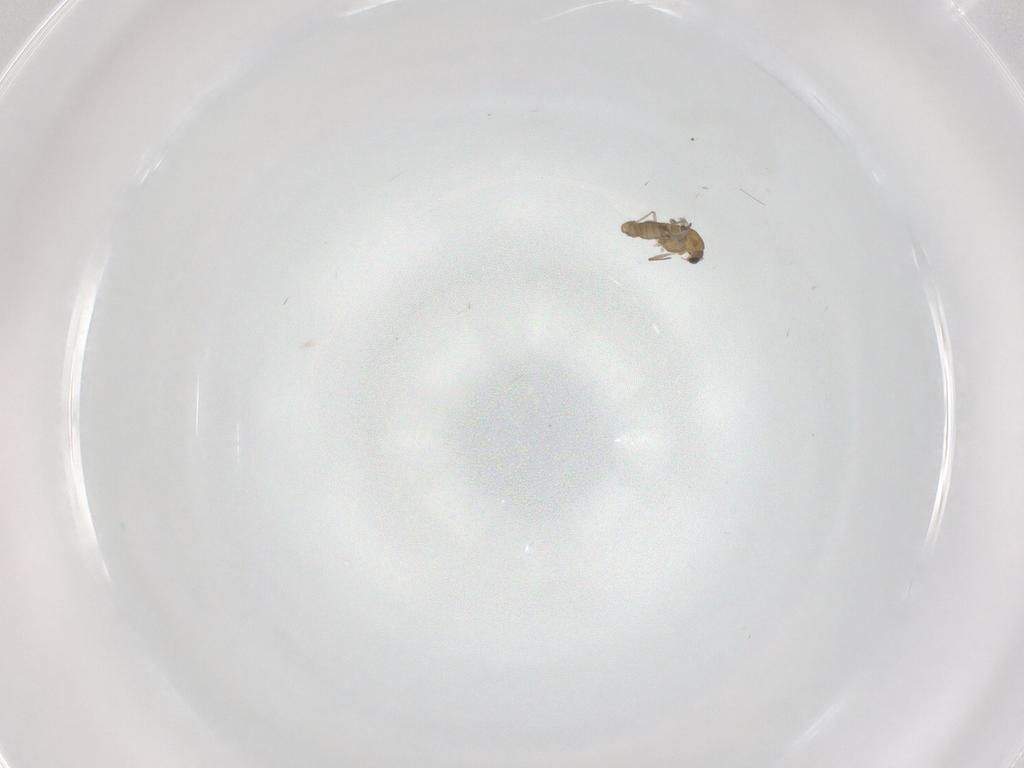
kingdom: Animalia
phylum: Arthropoda
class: Insecta
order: Diptera
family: Chironomidae
